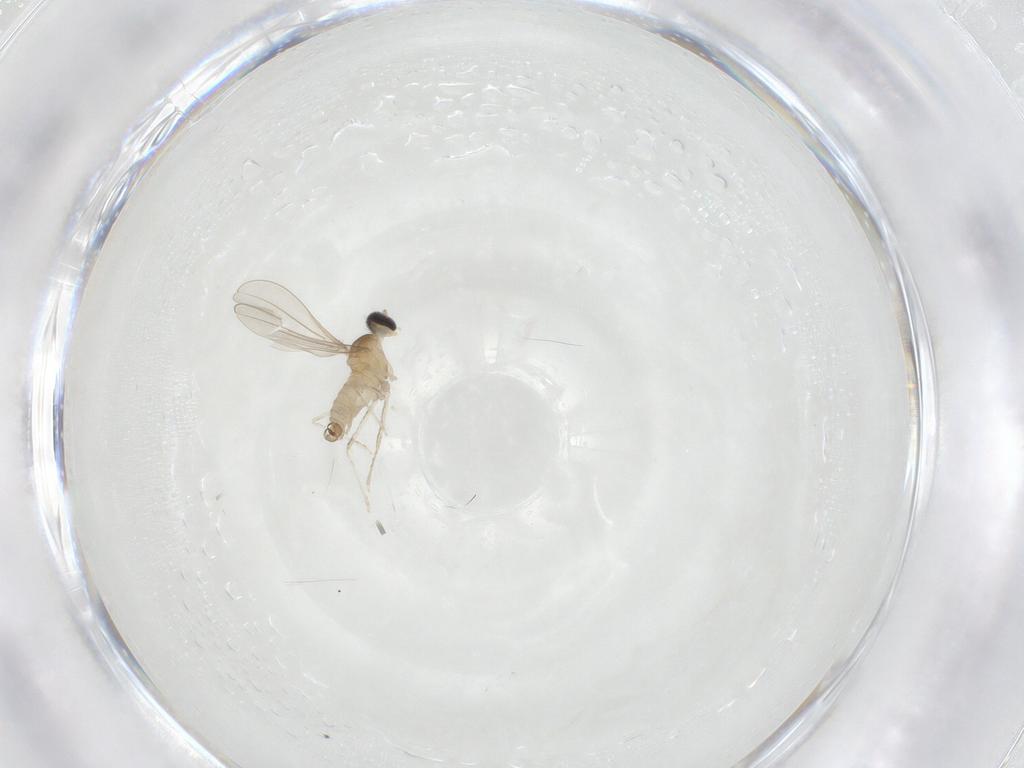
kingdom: Animalia
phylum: Arthropoda
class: Insecta
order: Diptera
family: Cecidomyiidae
